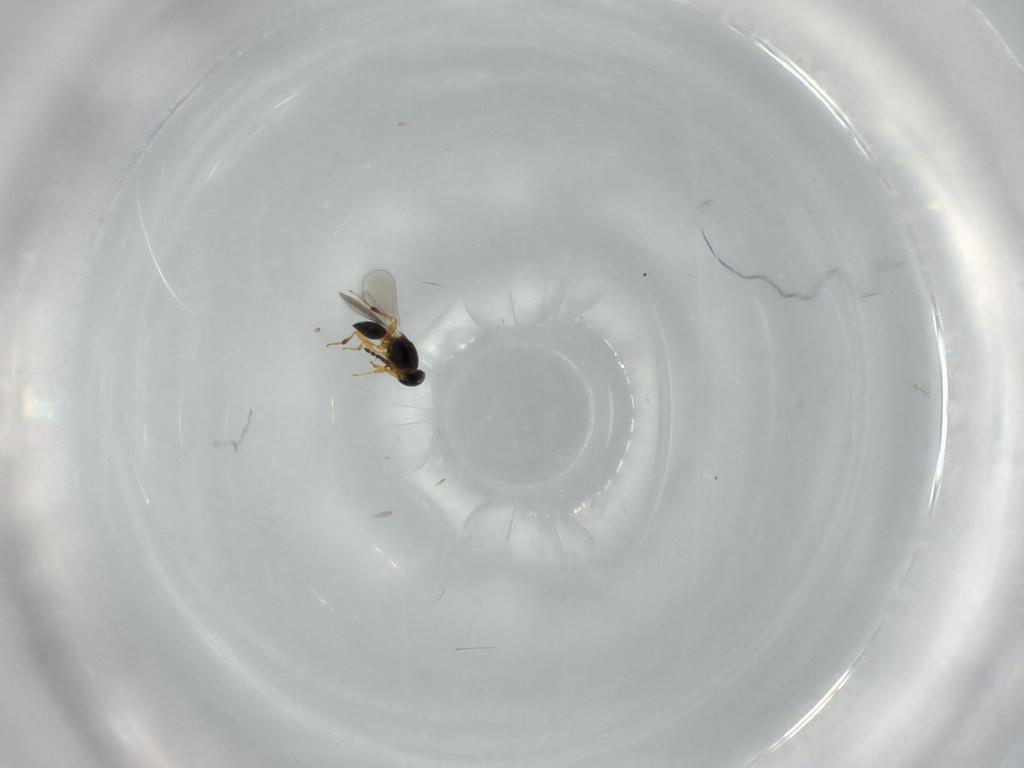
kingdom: Animalia
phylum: Arthropoda
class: Insecta
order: Hymenoptera
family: Platygastridae
